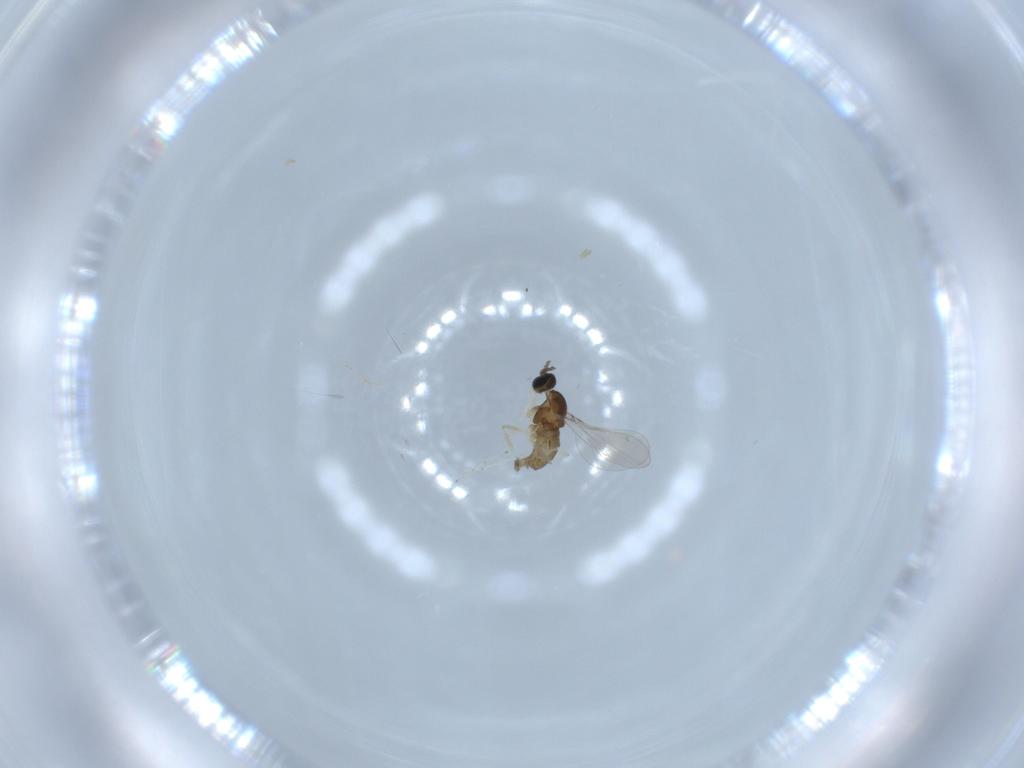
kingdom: Animalia
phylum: Arthropoda
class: Insecta
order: Diptera
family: Cecidomyiidae
